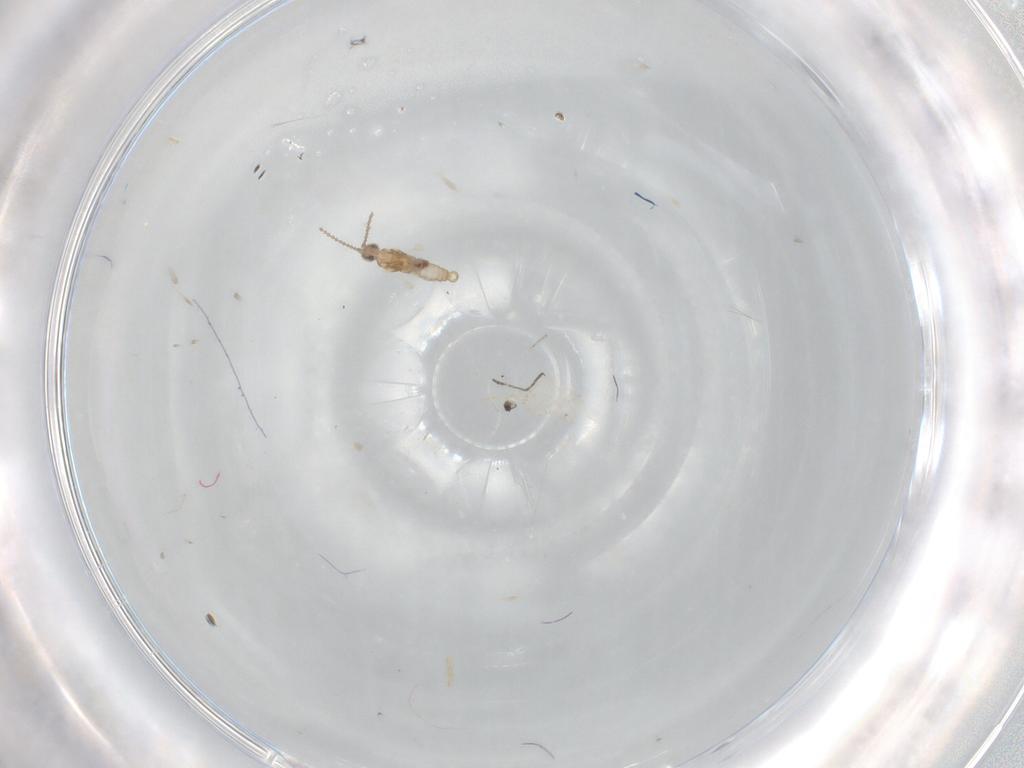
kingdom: Animalia
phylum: Arthropoda
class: Insecta
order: Diptera
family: Cecidomyiidae
